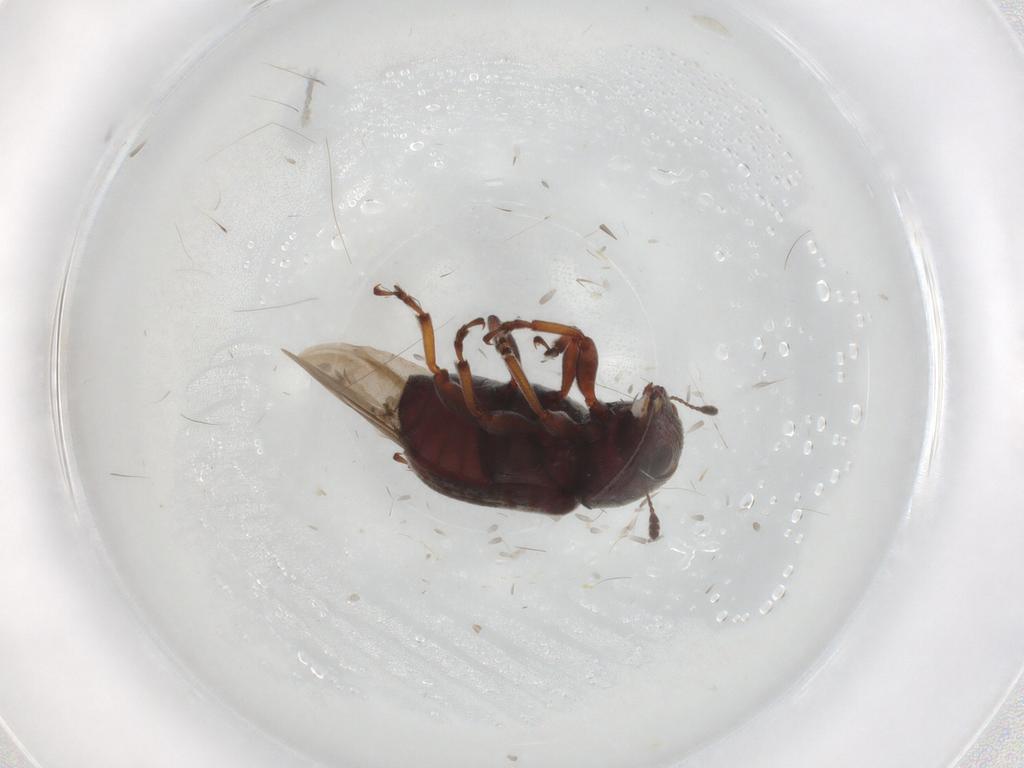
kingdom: Animalia
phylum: Arthropoda
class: Insecta
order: Coleoptera
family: Anthribidae
